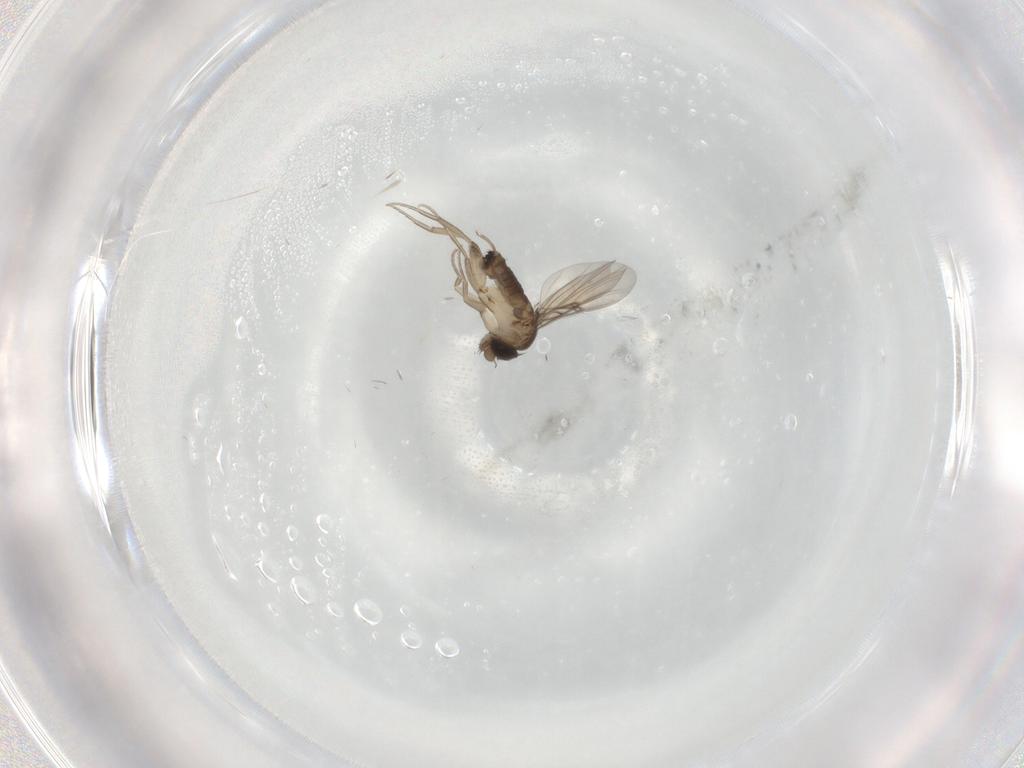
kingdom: Animalia
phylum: Arthropoda
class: Insecta
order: Diptera
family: Phoridae
